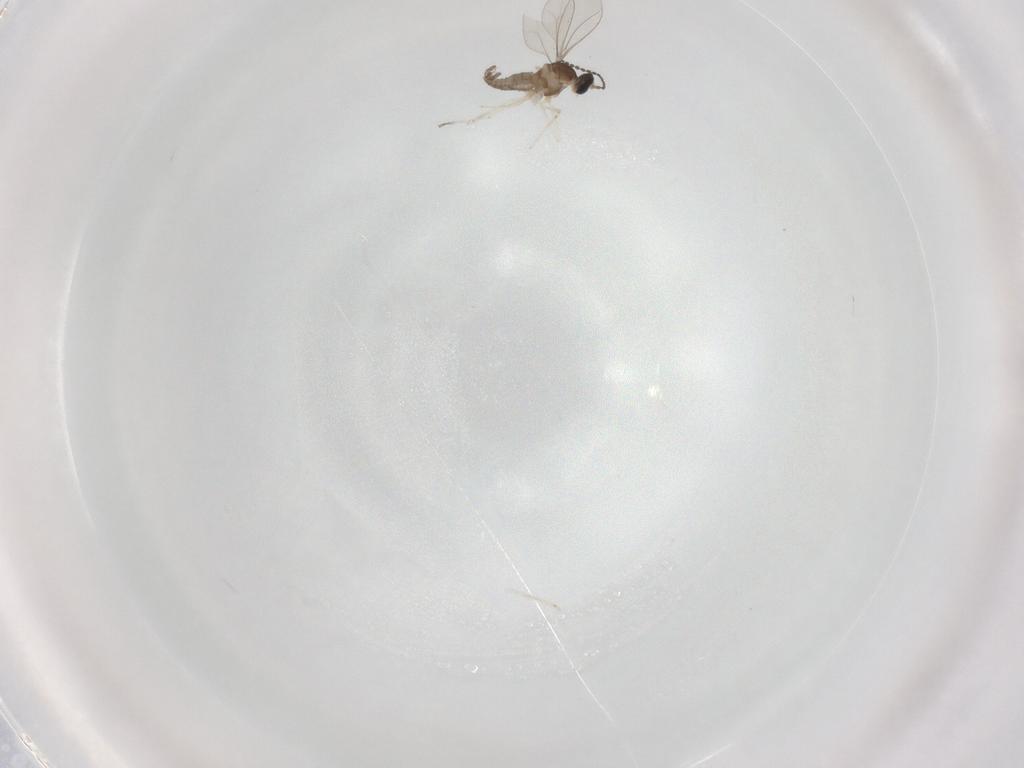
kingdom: Animalia
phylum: Arthropoda
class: Insecta
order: Diptera
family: Cecidomyiidae
